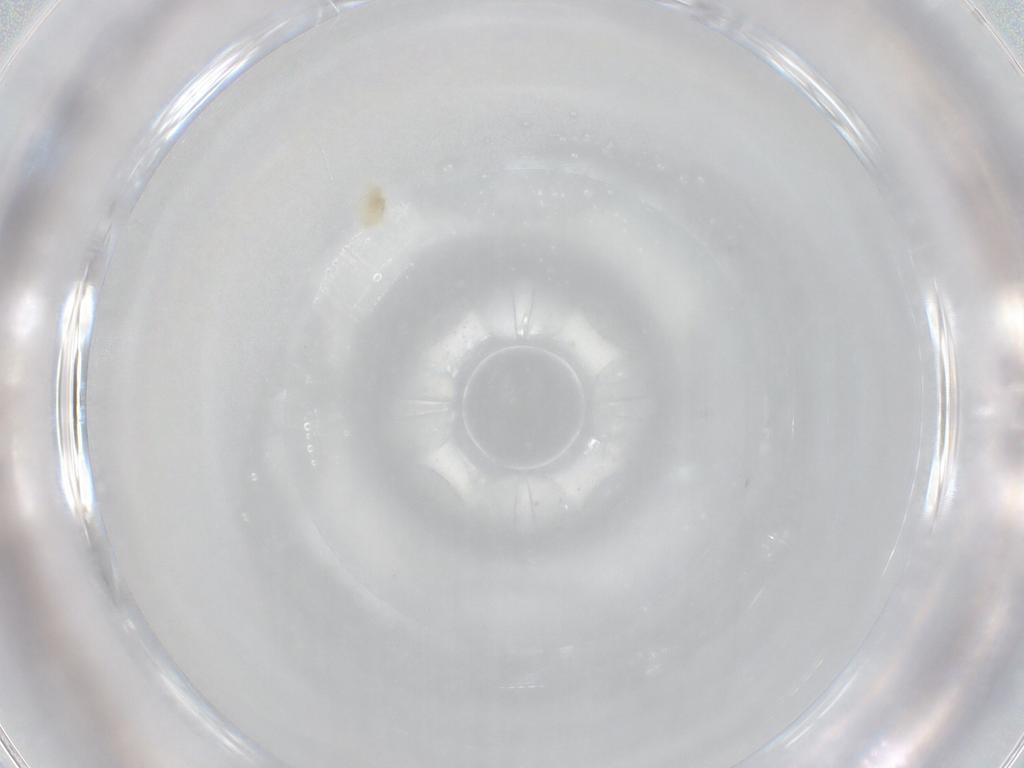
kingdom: Animalia
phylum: Arthropoda
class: Arachnida
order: Trombidiformes
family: Eupodidae
